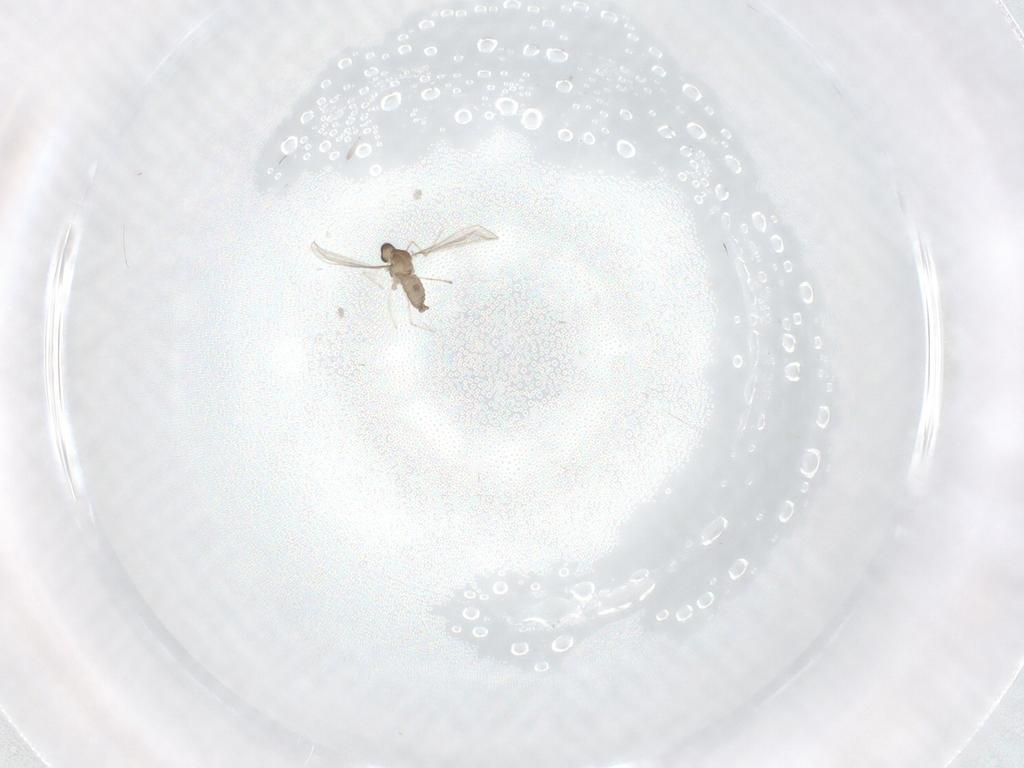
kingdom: Animalia
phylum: Arthropoda
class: Insecta
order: Diptera
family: Cecidomyiidae
